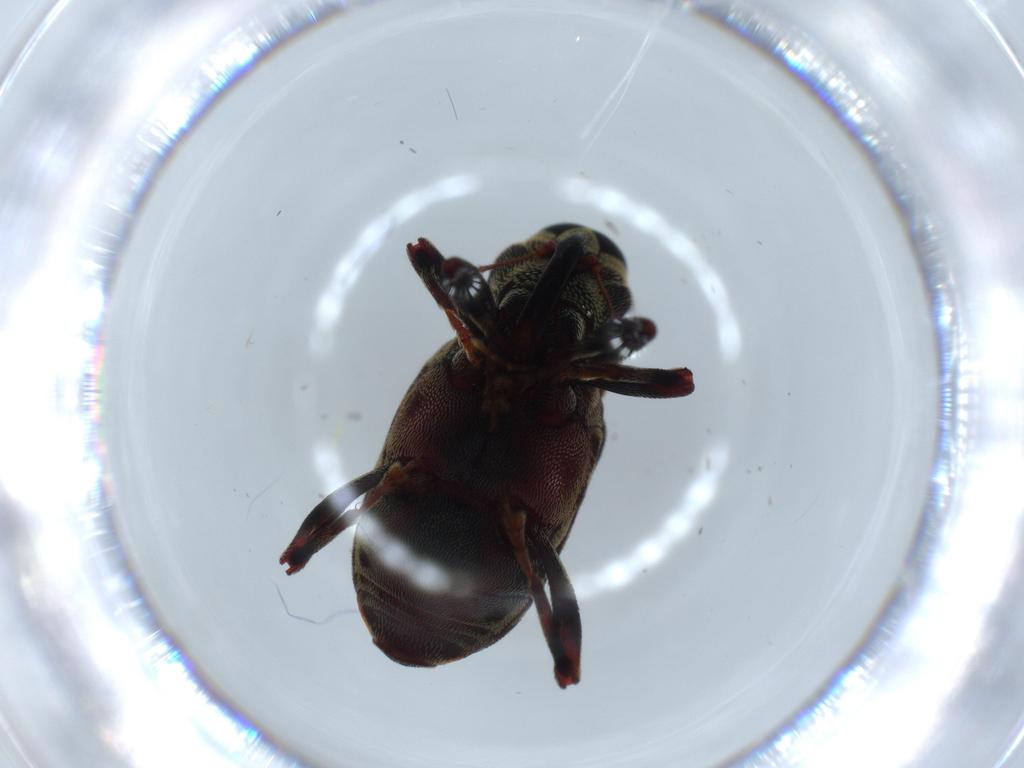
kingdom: Animalia
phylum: Arthropoda
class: Insecta
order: Coleoptera
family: Curculionidae
